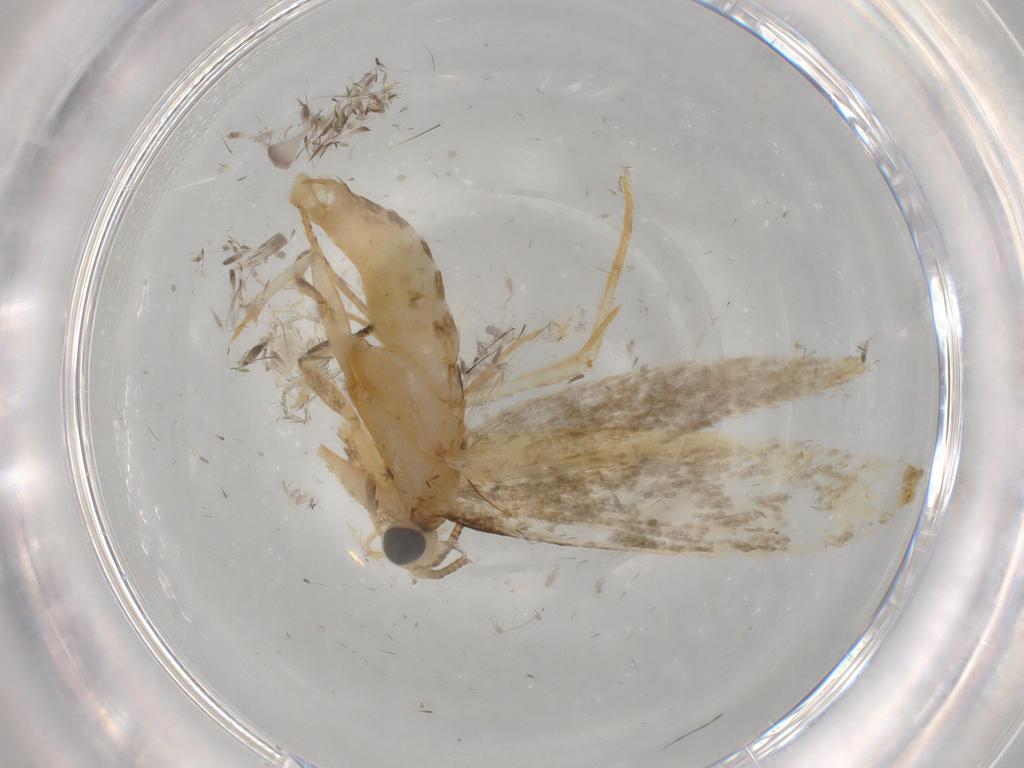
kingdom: Animalia
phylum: Arthropoda
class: Insecta
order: Lepidoptera
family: Tineidae
